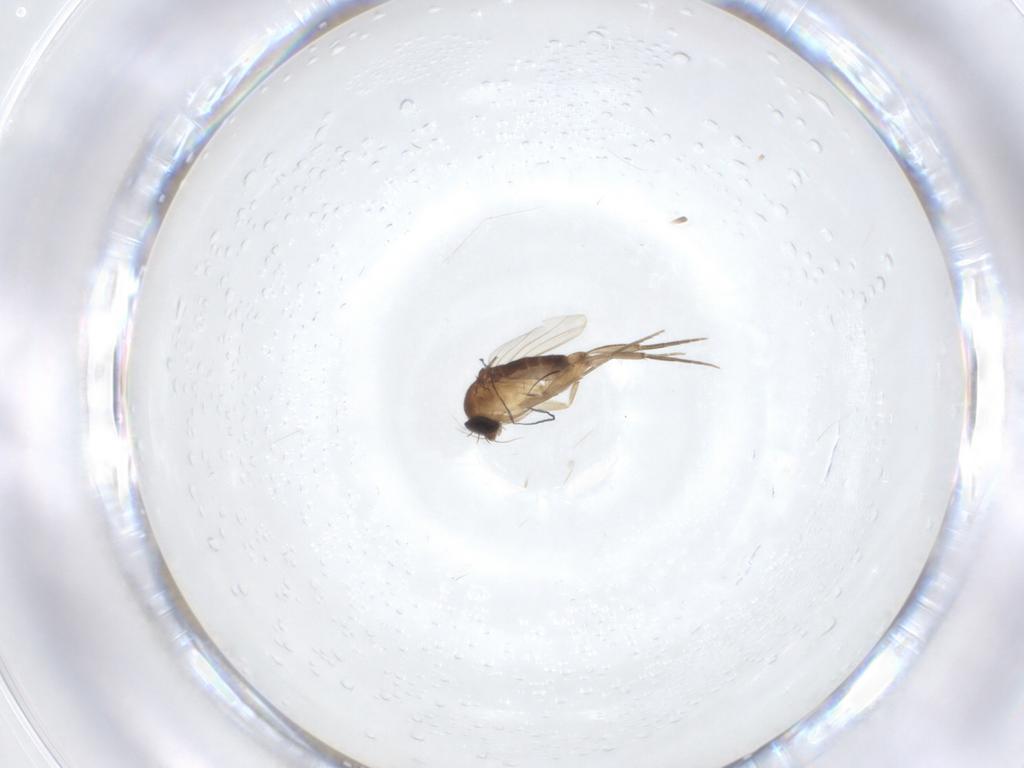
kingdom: Animalia
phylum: Arthropoda
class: Insecta
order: Diptera
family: Phoridae
